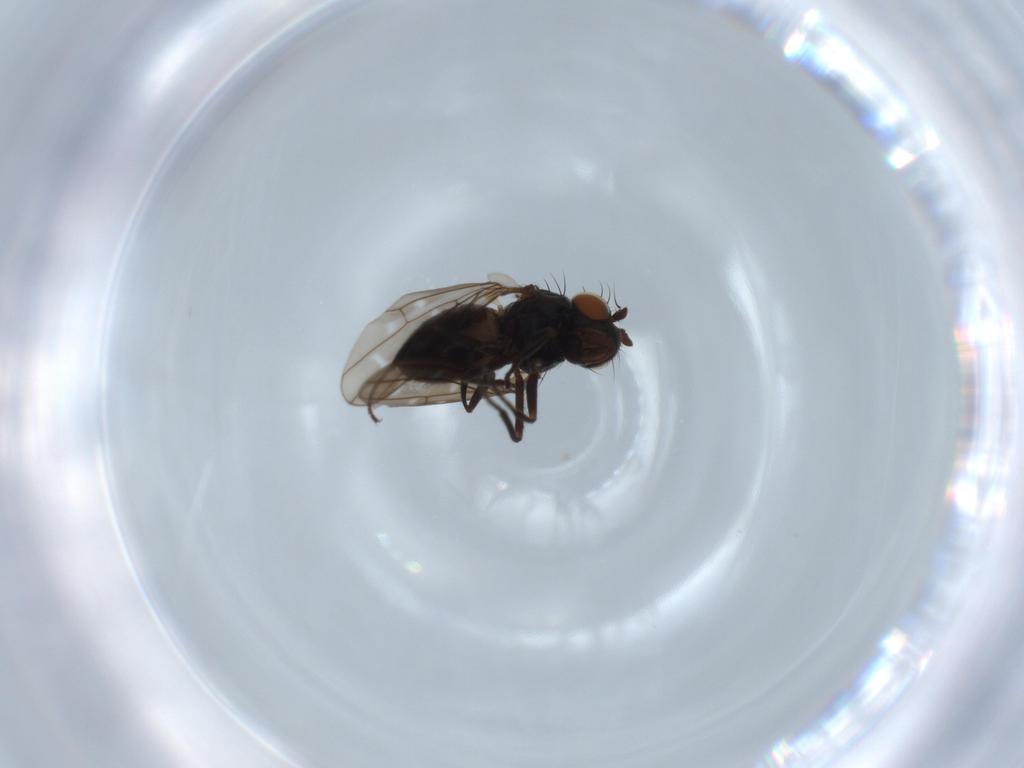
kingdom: Animalia
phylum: Arthropoda
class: Insecta
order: Diptera
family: Ephydridae
